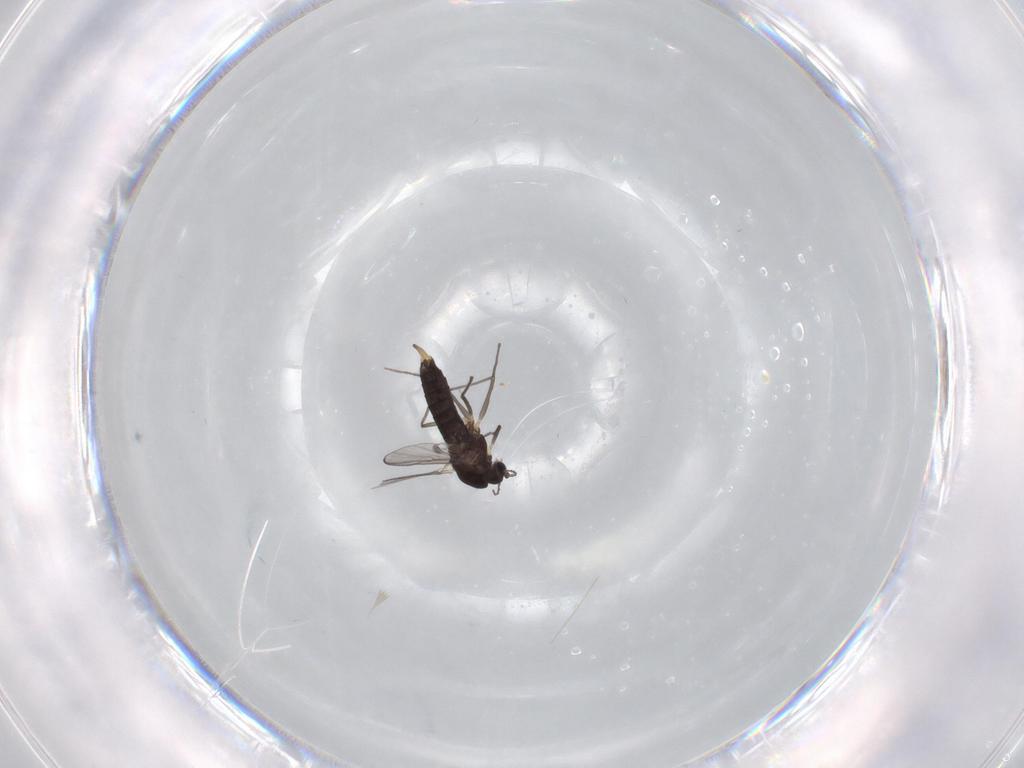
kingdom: Animalia
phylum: Arthropoda
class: Insecta
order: Diptera
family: Chironomidae
